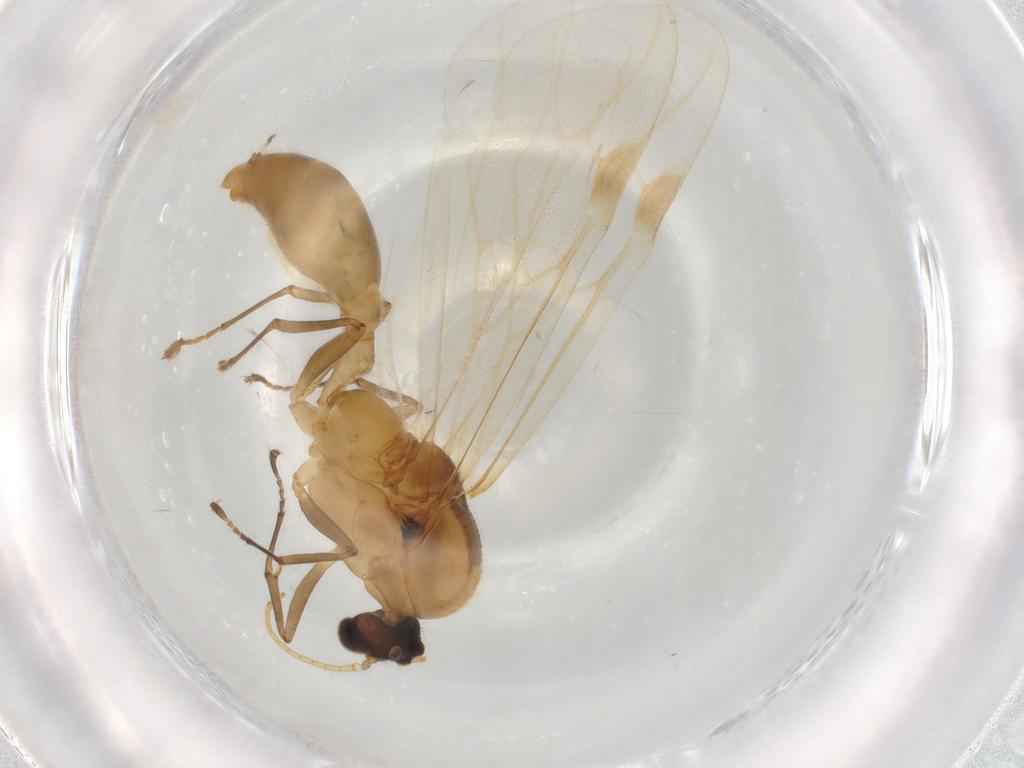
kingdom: Animalia
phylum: Arthropoda
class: Insecta
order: Hymenoptera
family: Formicidae
